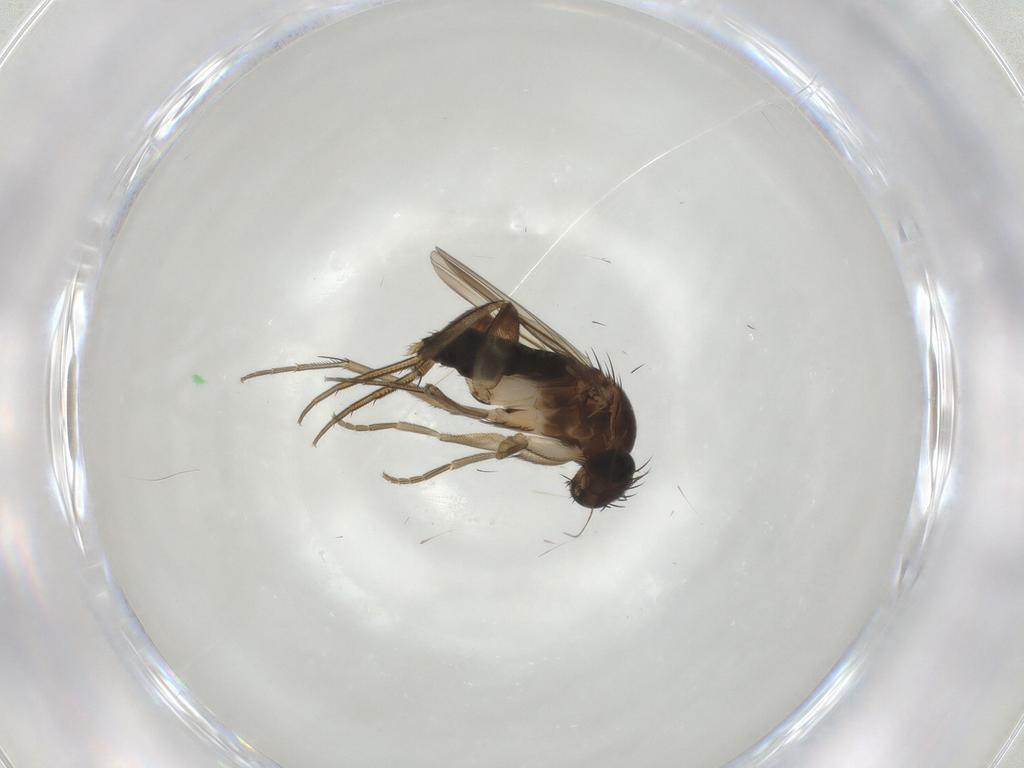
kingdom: Animalia
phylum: Arthropoda
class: Insecta
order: Diptera
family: Phoridae
